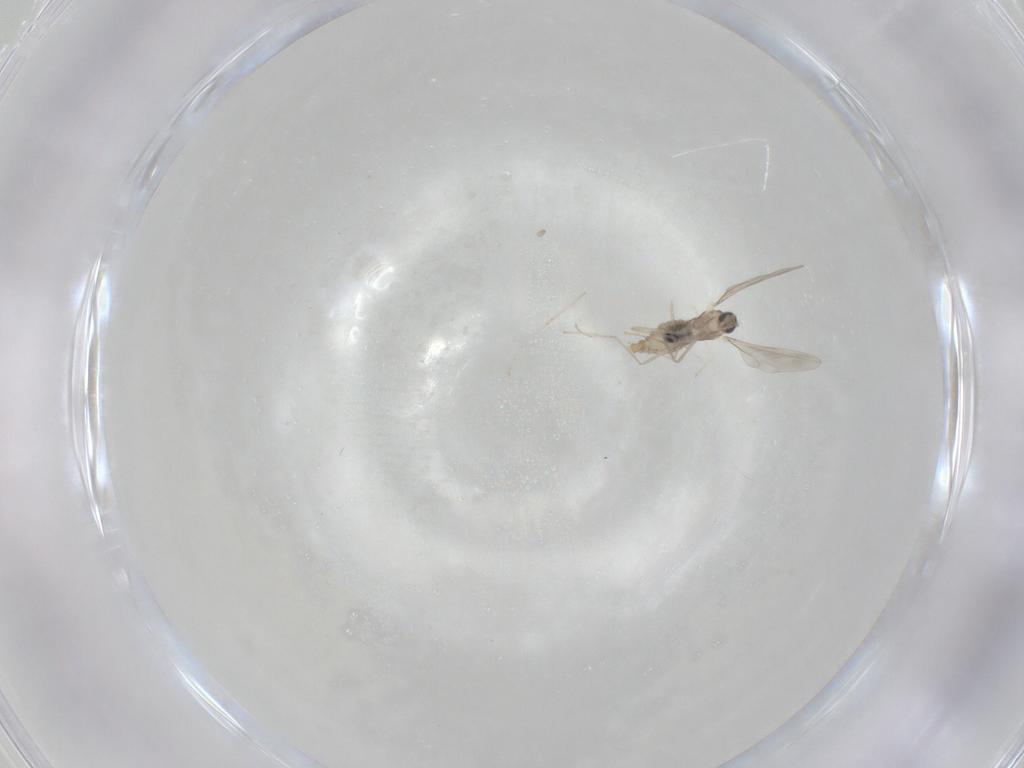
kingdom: Animalia
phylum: Arthropoda
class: Insecta
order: Diptera
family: Cecidomyiidae
